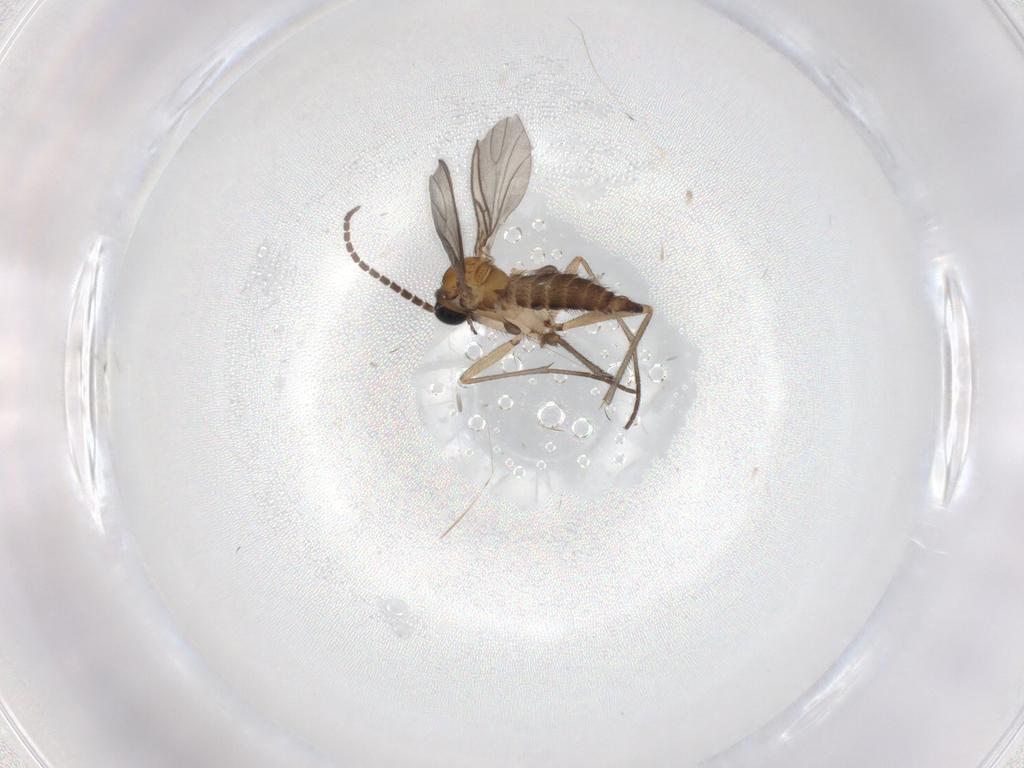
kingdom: Animalia
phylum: Arthropoda
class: Insecta
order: Diptera
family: Sciaridae
